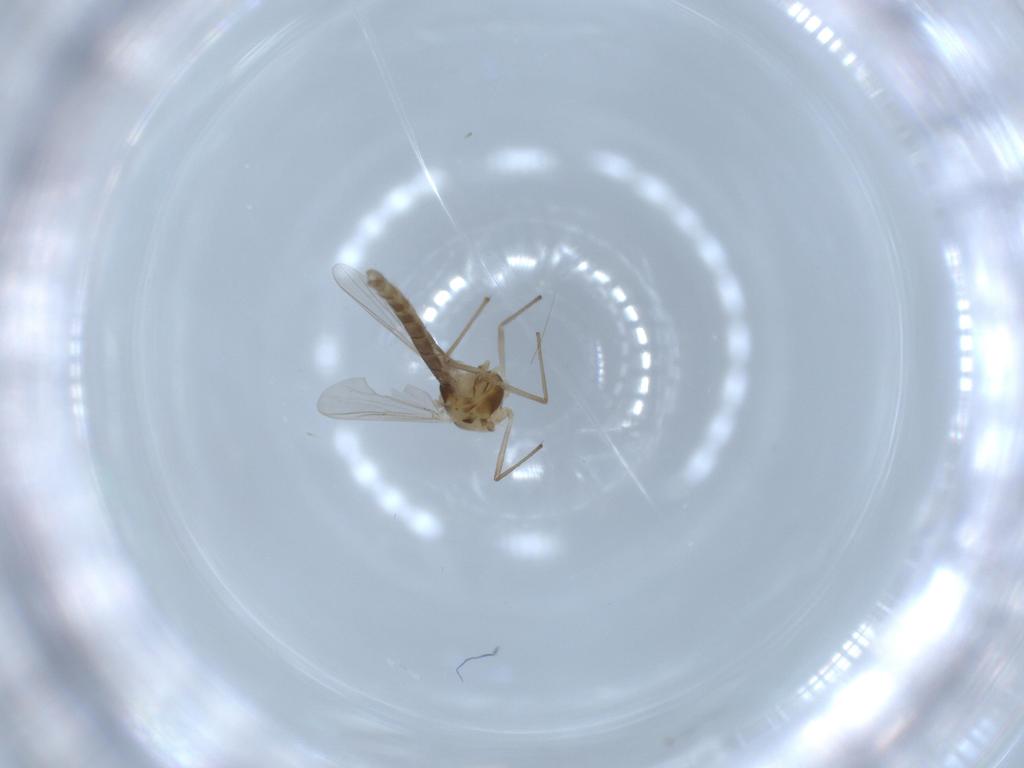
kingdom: Animalia
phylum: Arthropoda
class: Insecta
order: Diptera
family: Chironomidae
